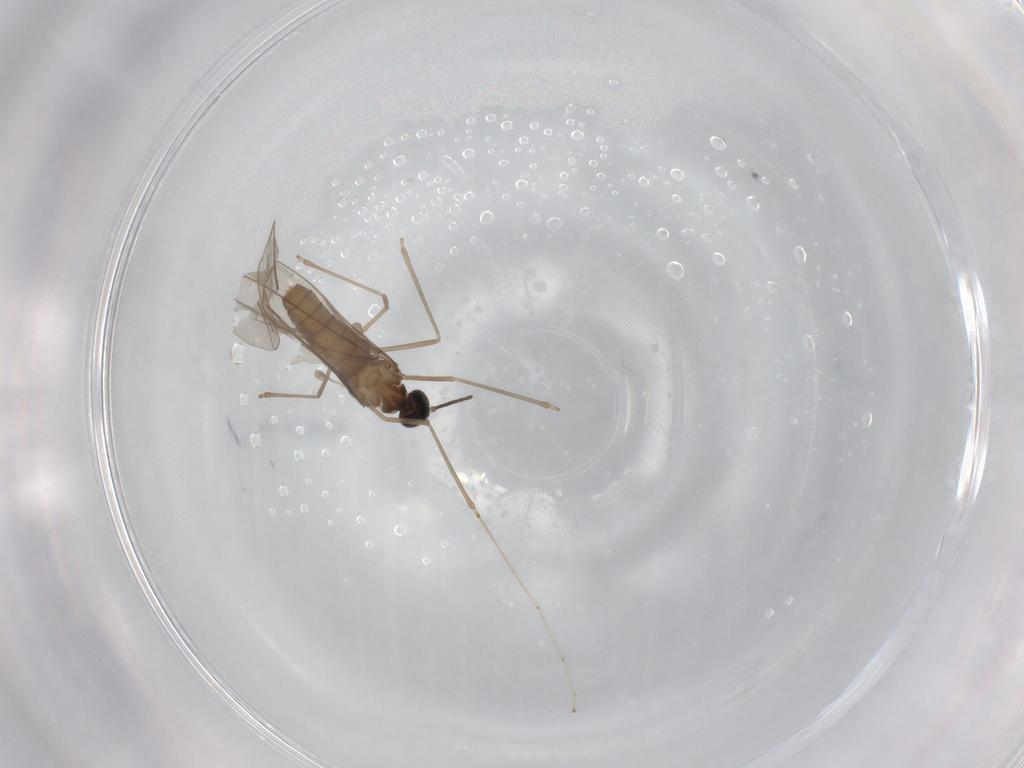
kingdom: Animalia
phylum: Arthropoda
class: Insecta
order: Diptera
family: Cecidomyiidae
